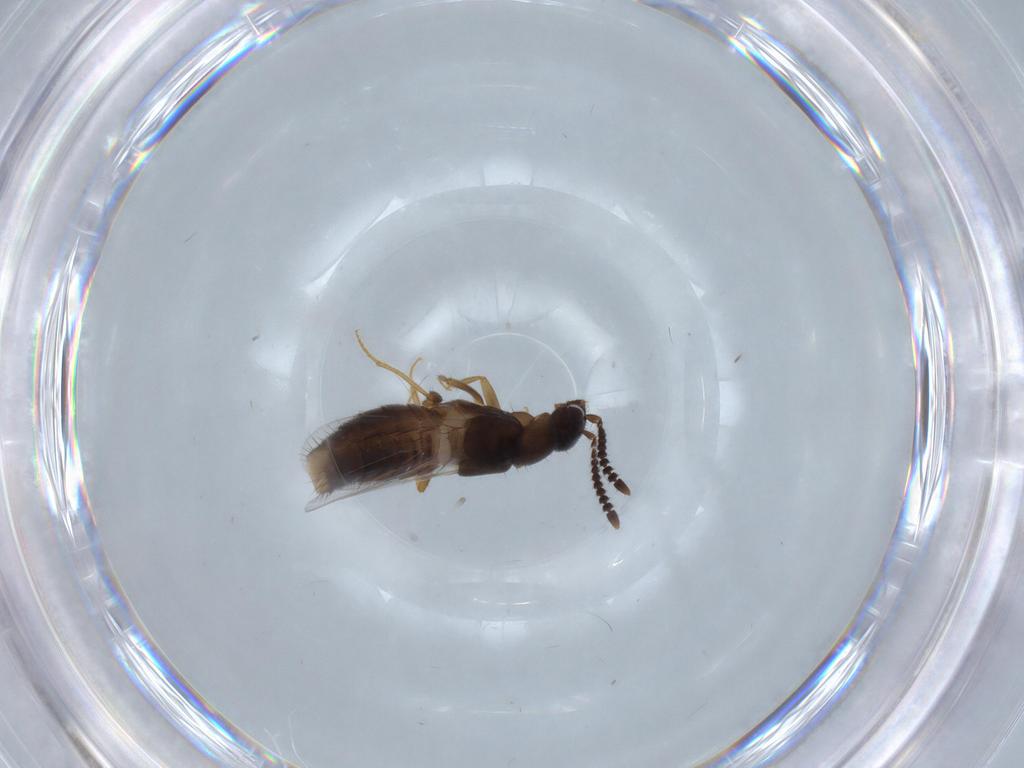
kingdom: Animalia
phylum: Arthropoda
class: Insecta
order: Coleoptera
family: Staphylinidae
